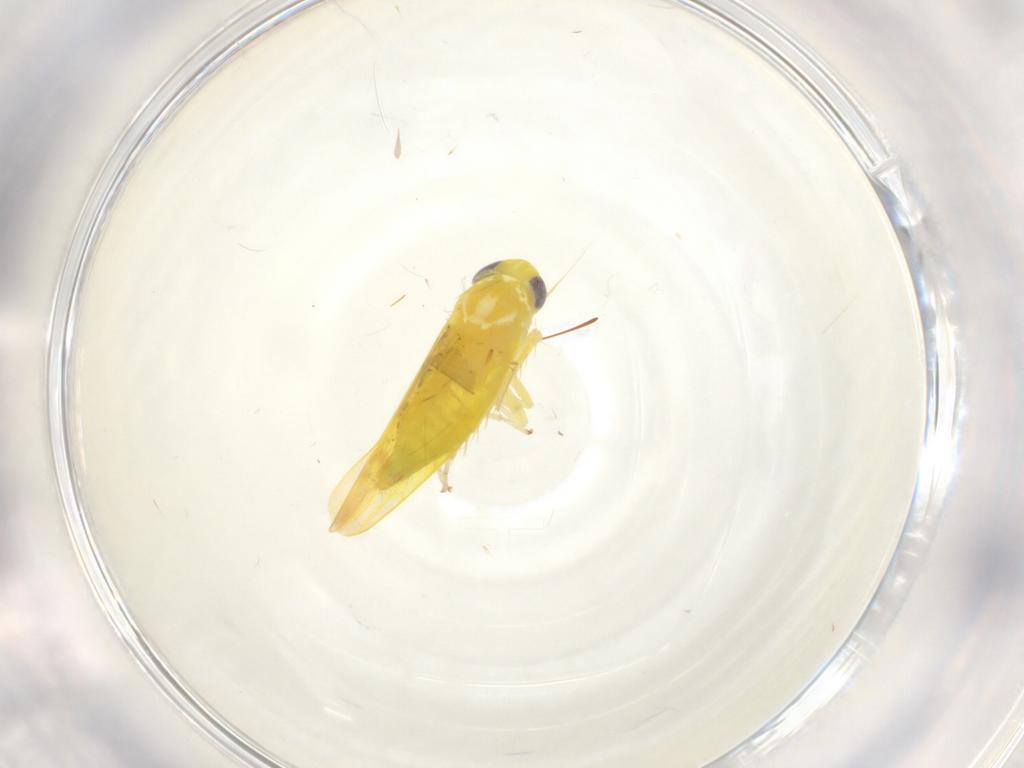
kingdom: Animalia
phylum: Arthropoda
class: Insecta
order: Hemiptera
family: Cicadellidae
